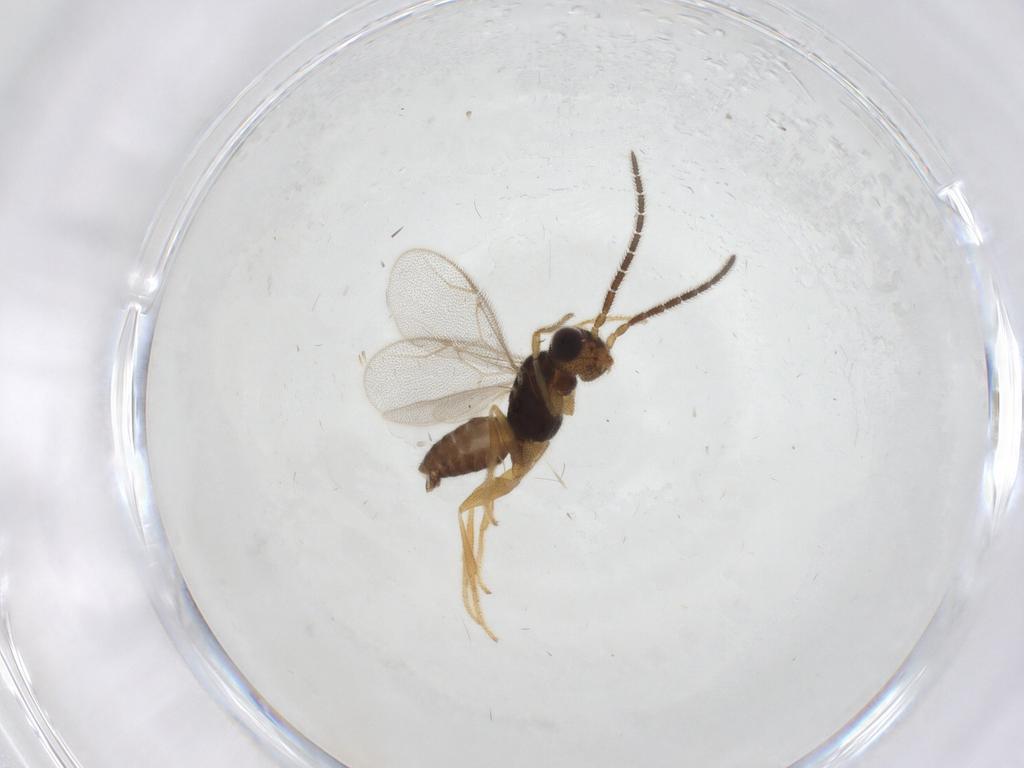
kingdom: Animalia
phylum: Arthropoda
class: Insecta
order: Hymenoptera
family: Dryinidae
